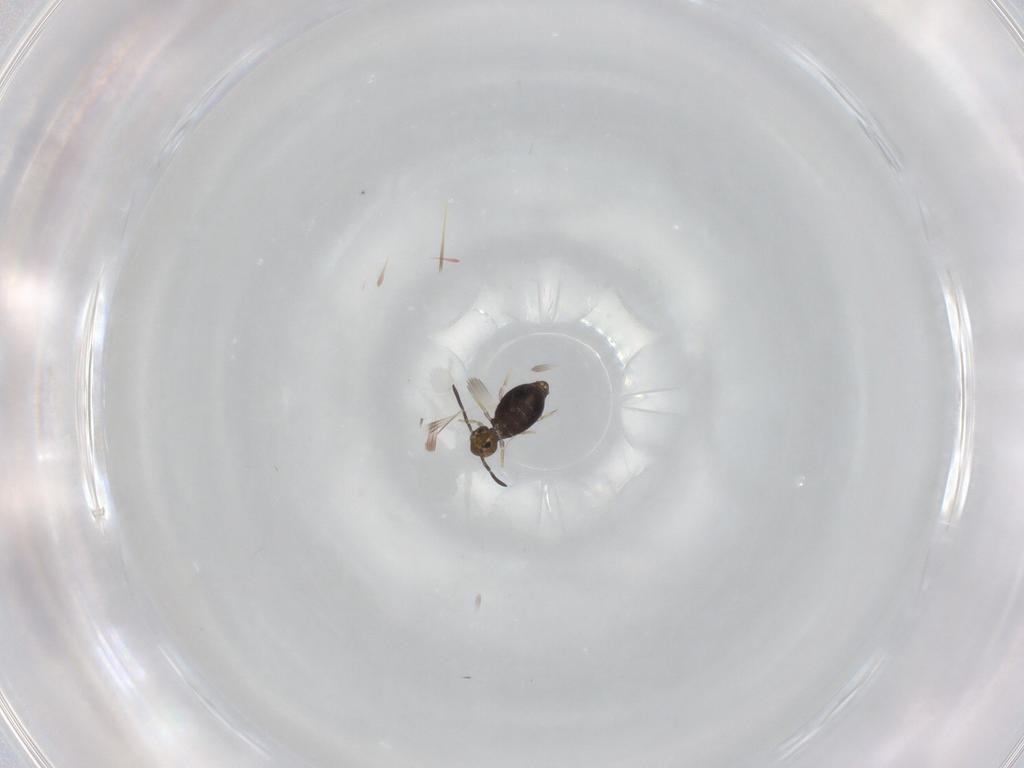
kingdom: Animalia
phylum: Arthropoda
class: Collembola
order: Symphypleona
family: Katiannidae
